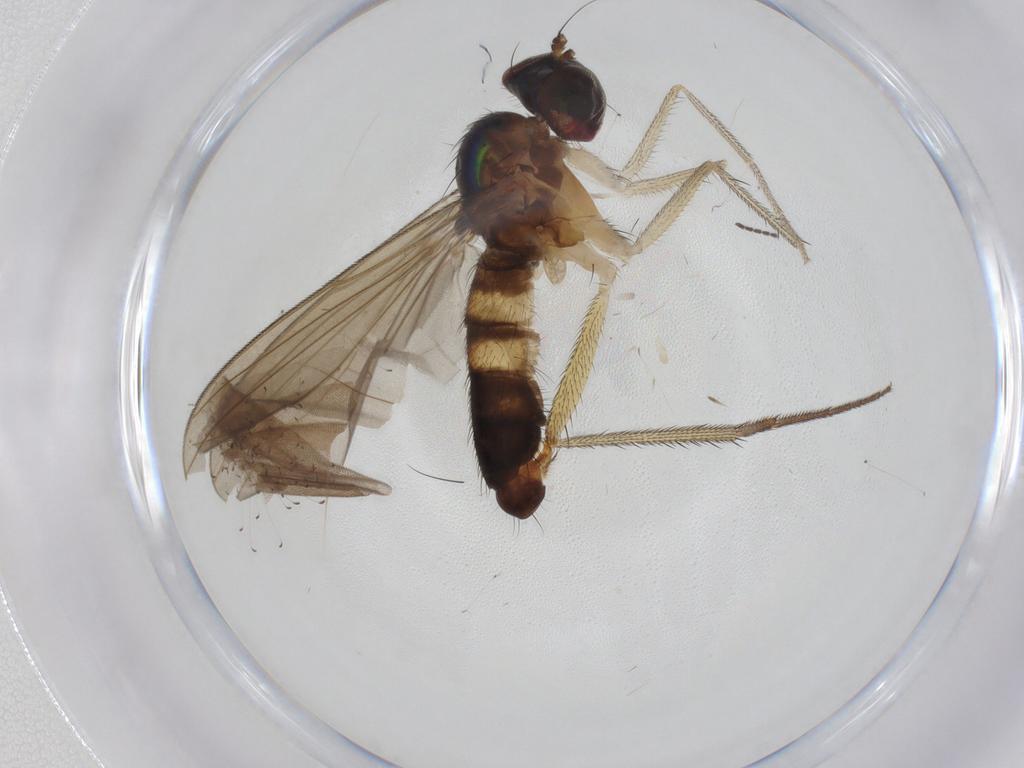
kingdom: Animalia
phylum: Arthropoda
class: Insecta
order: Diptera
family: Dolichopodidae
